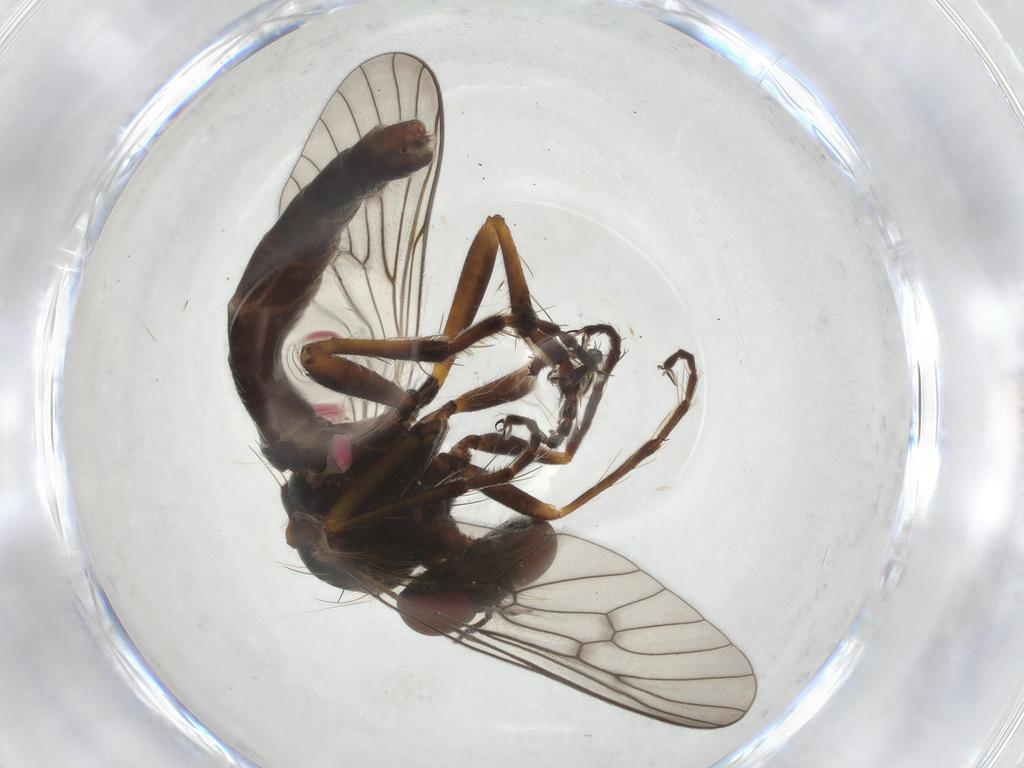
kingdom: Animalia
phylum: Arthropoda
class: Insecta
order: Diptera
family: Asilidae
